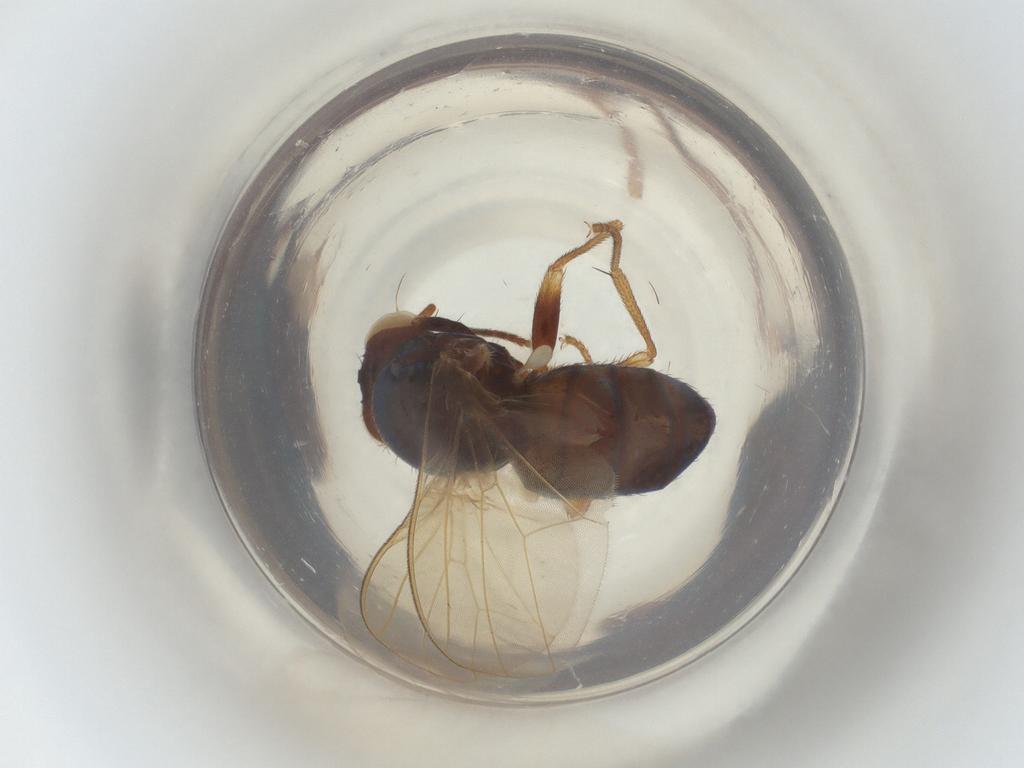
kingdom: Animalia
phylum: Arthropoda
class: Insecta
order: Diptera
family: Lauxaniidae
